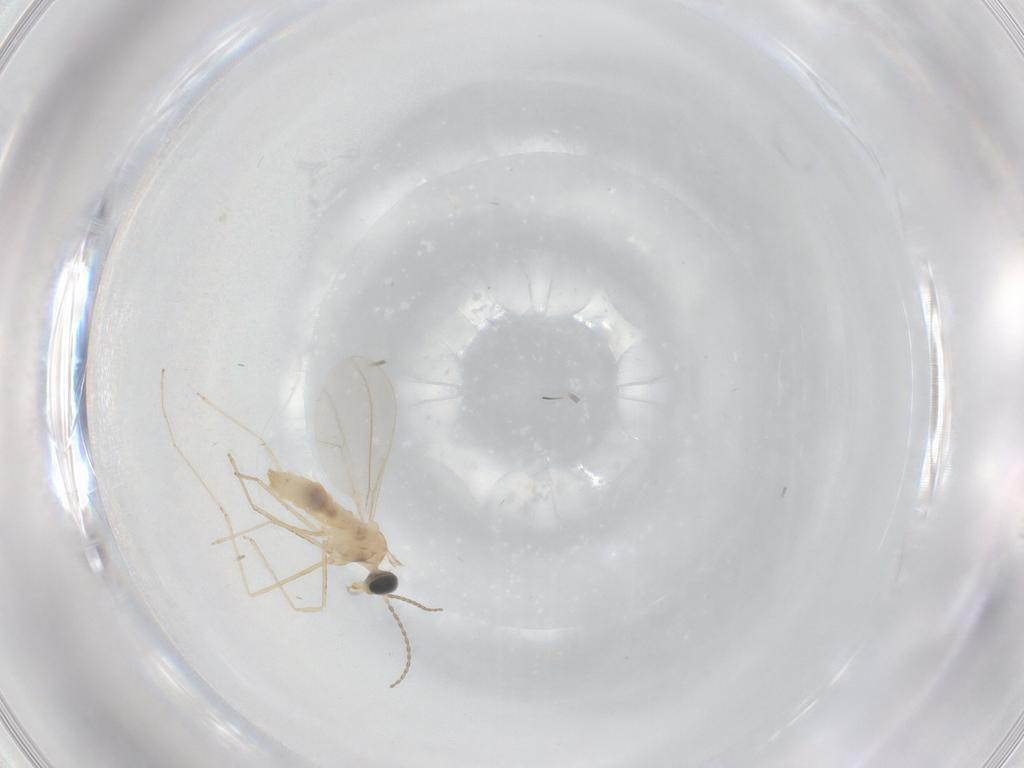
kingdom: Animalia
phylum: Arthropoda
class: Insecta
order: Diptera
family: Cecidomyiidae
